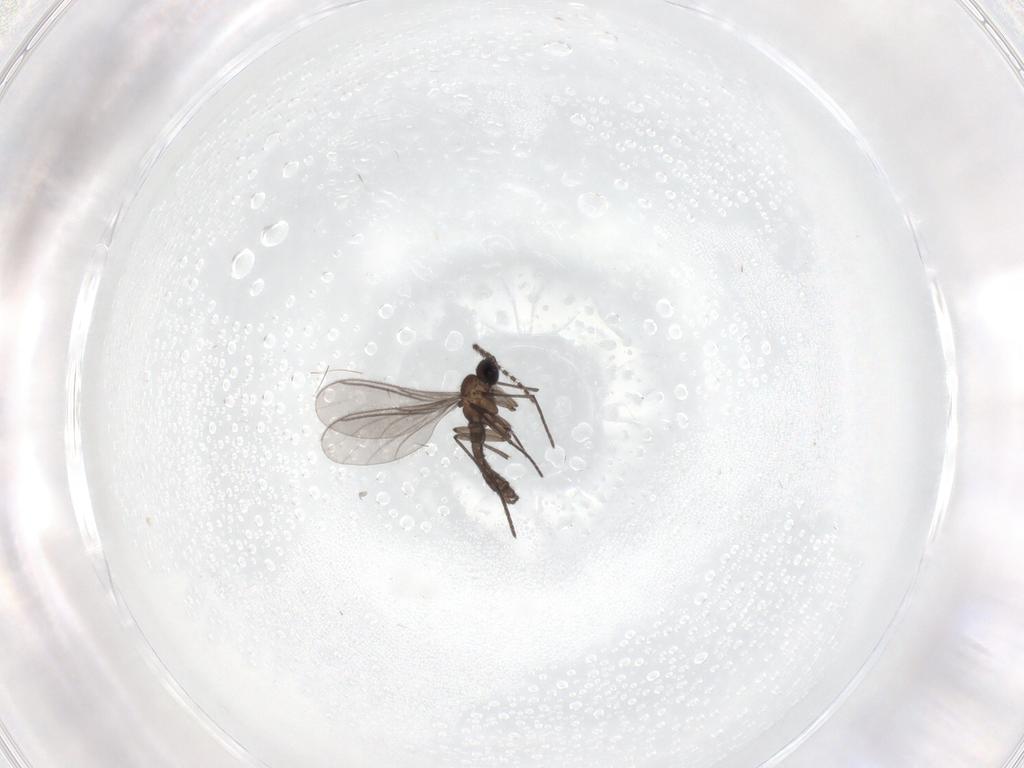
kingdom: Animalia
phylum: Arthropoda
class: Insecta
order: Diptera
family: Sciaridae
